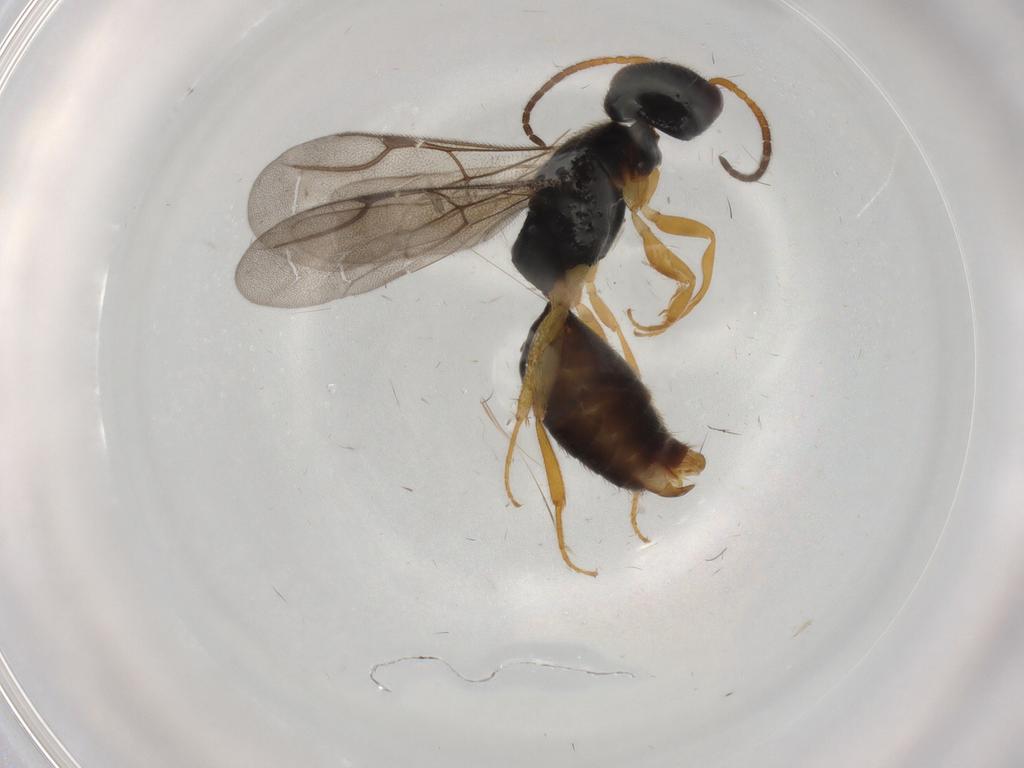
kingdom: Animalia
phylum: Arthropoda
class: Insecta
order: Hymenoptera
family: Bethylidae
